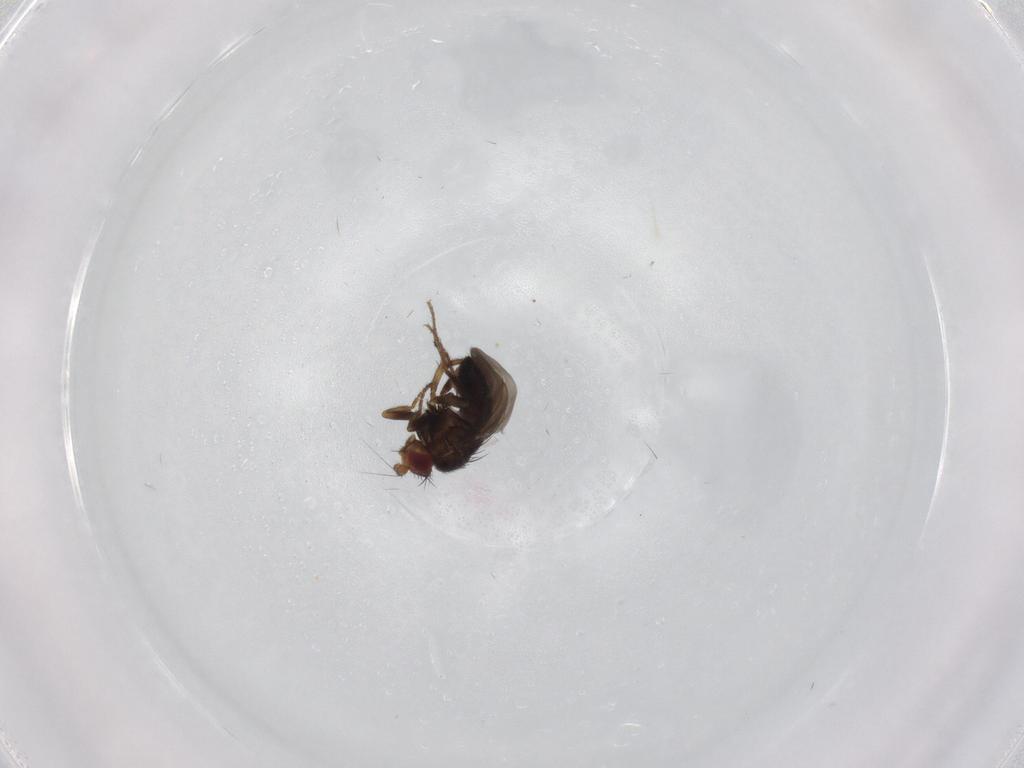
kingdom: Animalia
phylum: Arthropoda
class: Insecta
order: Diptera
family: Sphaeroceridae
